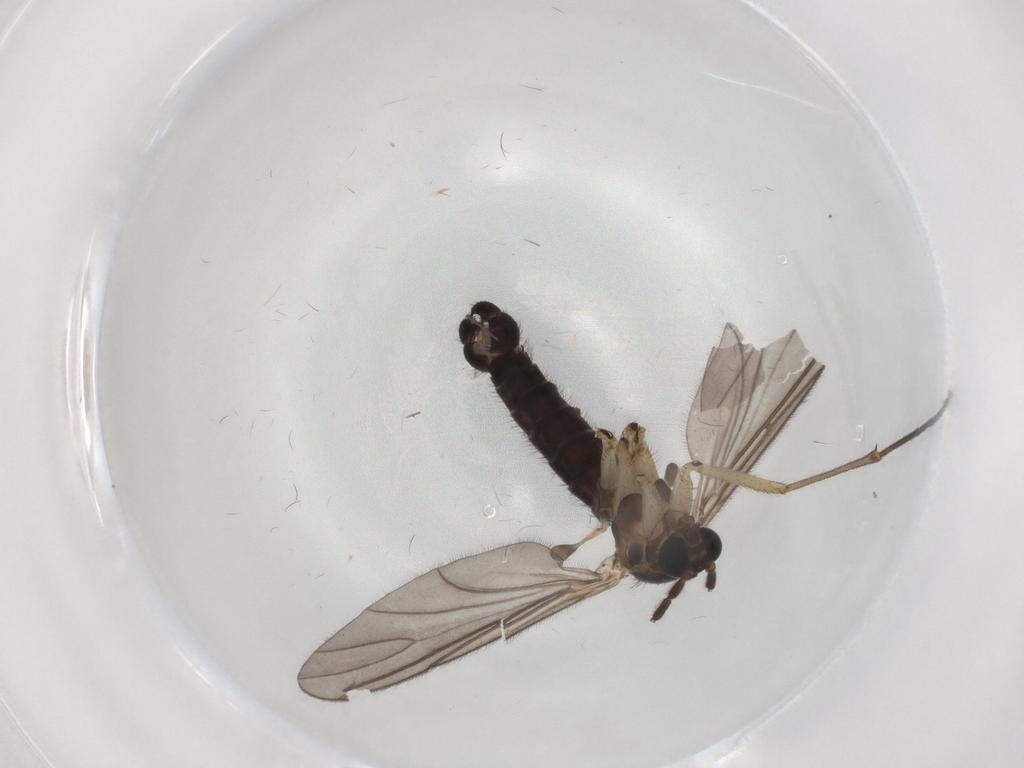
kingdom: Animalia
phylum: Arthropoda
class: Insecta
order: Diptera
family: Sciaridae
